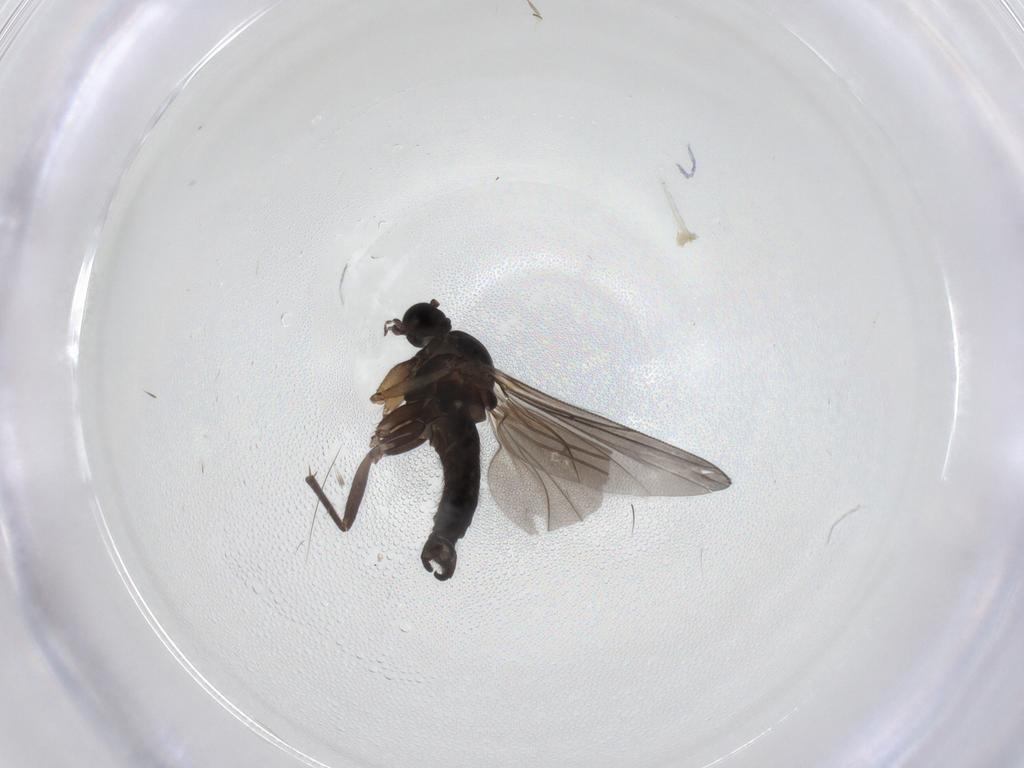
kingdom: Animalia
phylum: Arthropoda
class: Insecta
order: Diptera
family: Sciaridae
